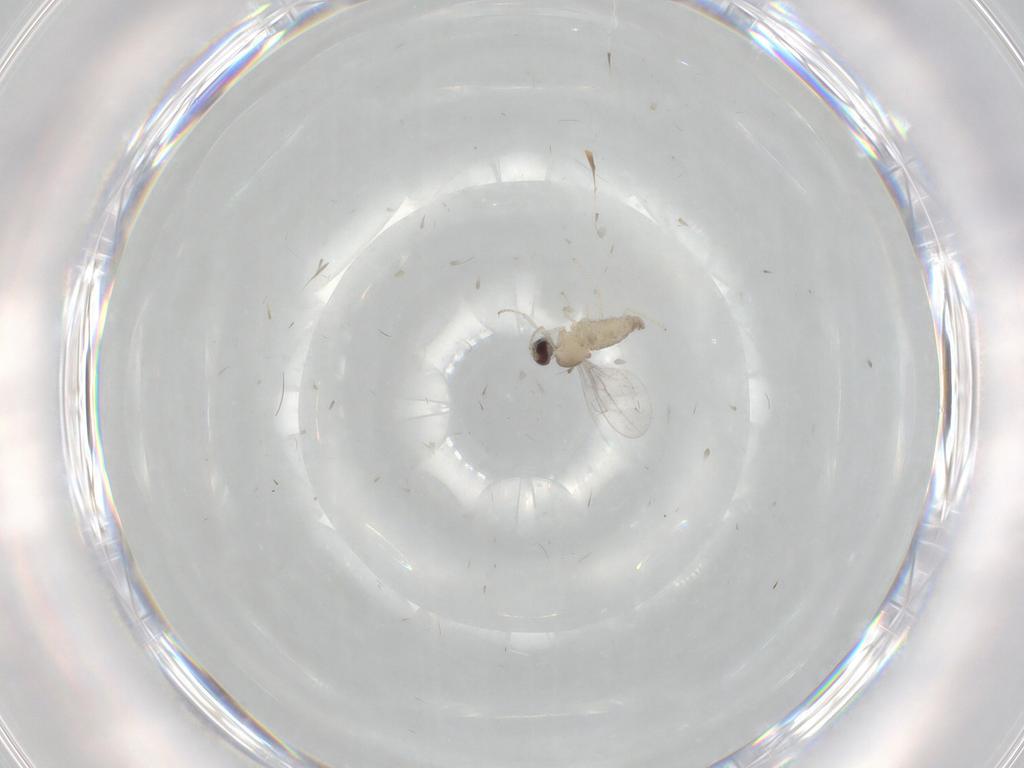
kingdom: Animalia
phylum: Arthropoda
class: Insecta
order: Diptera
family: Cecidomyiidae
